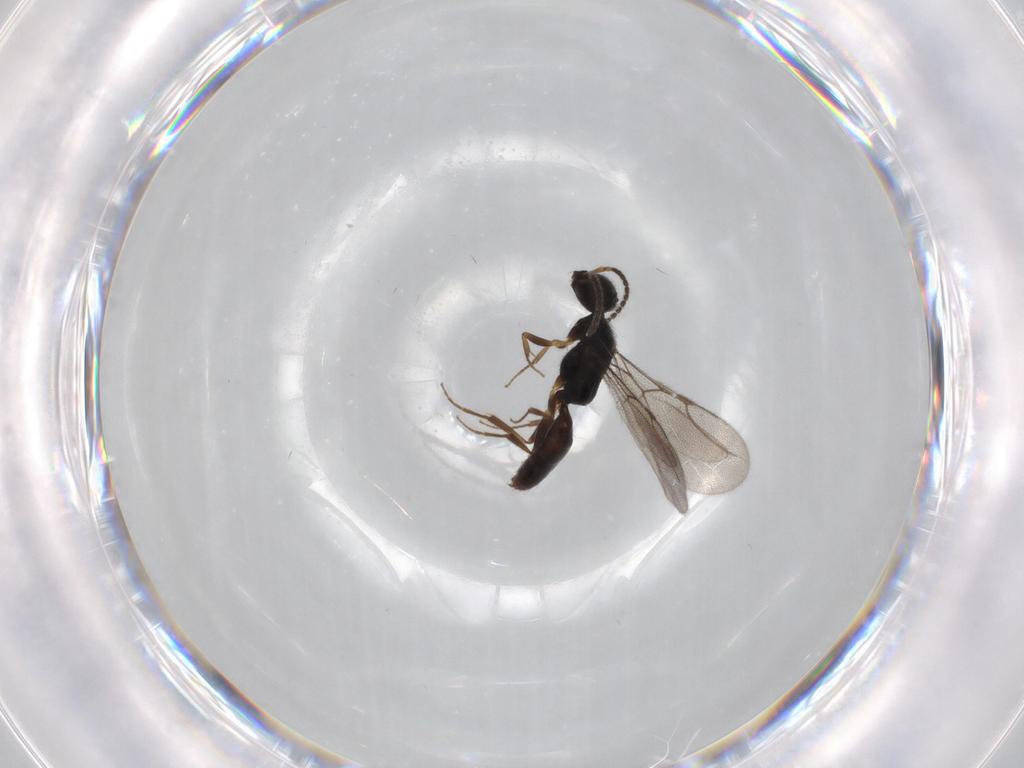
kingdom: Animalia
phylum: Arthropoda
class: Insecta
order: Hymenoptera
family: Bethylidae
